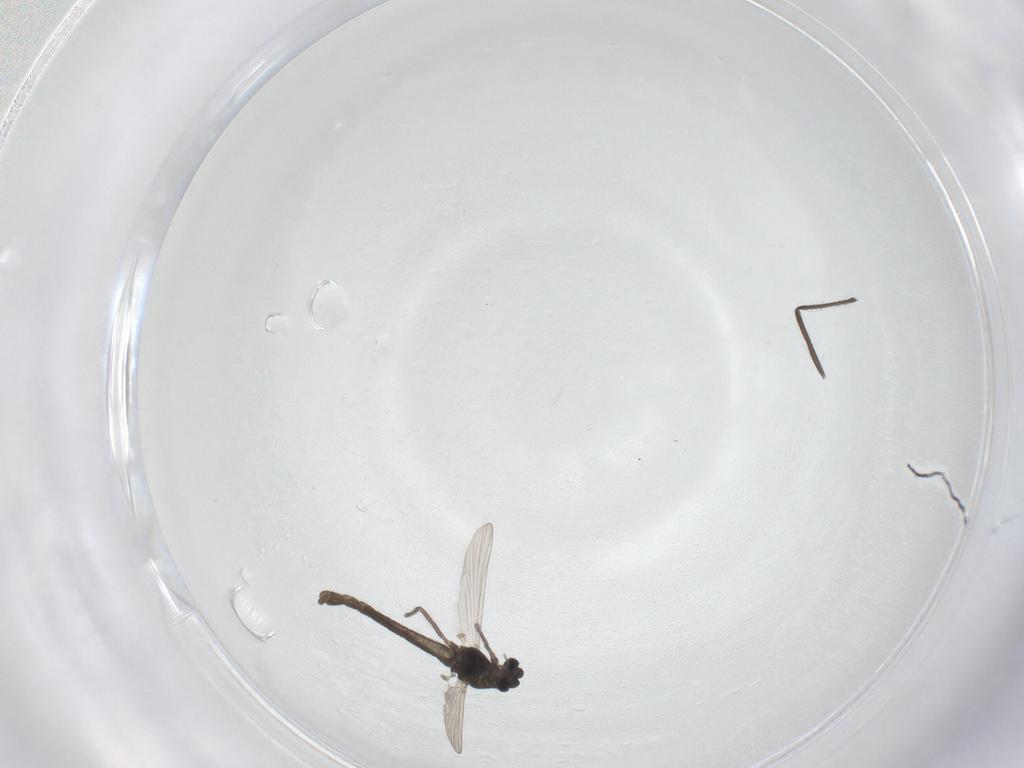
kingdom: Animalia
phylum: Arthropoda
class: Insecta
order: Diptera
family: Chironomidae
